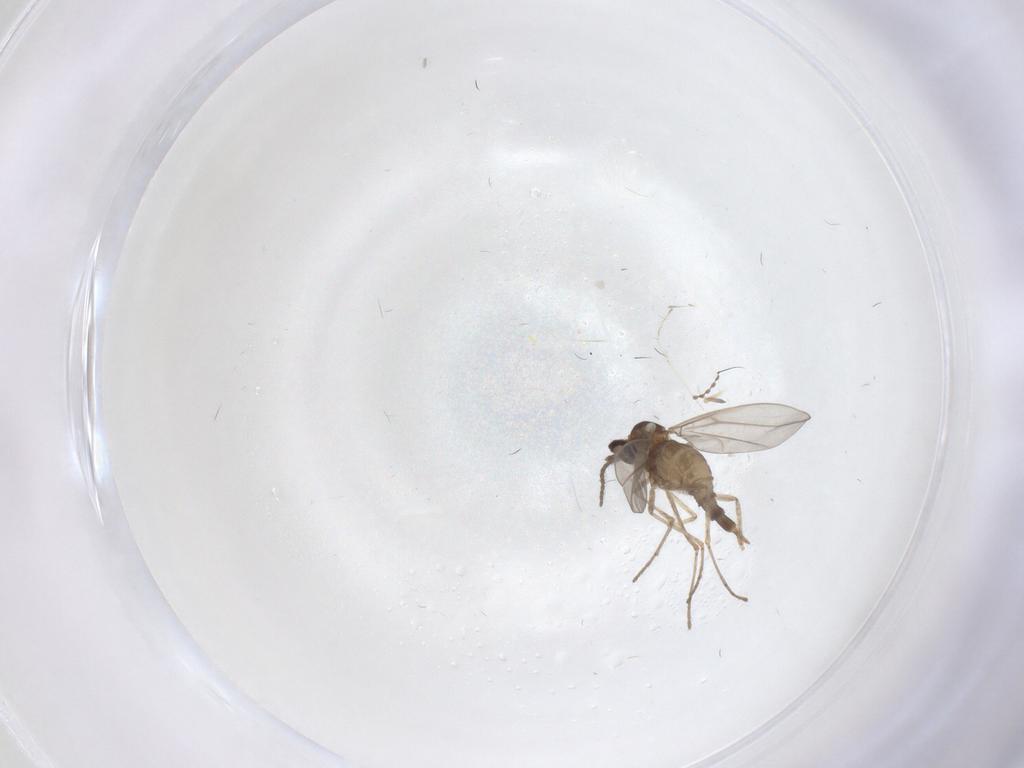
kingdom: Animalia
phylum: Arthropoda
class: Insecta
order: Diptera
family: Cecidomyiidae
